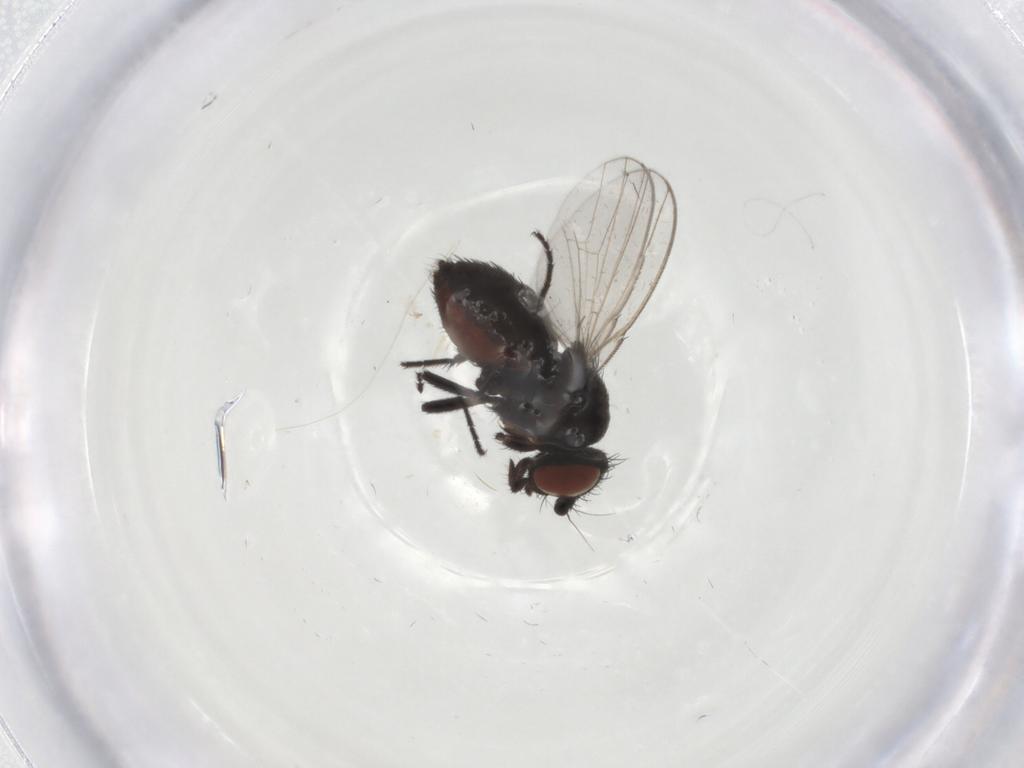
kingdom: Animalia
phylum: Arthropoda
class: Insecta
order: Diptera
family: Milichiidae
